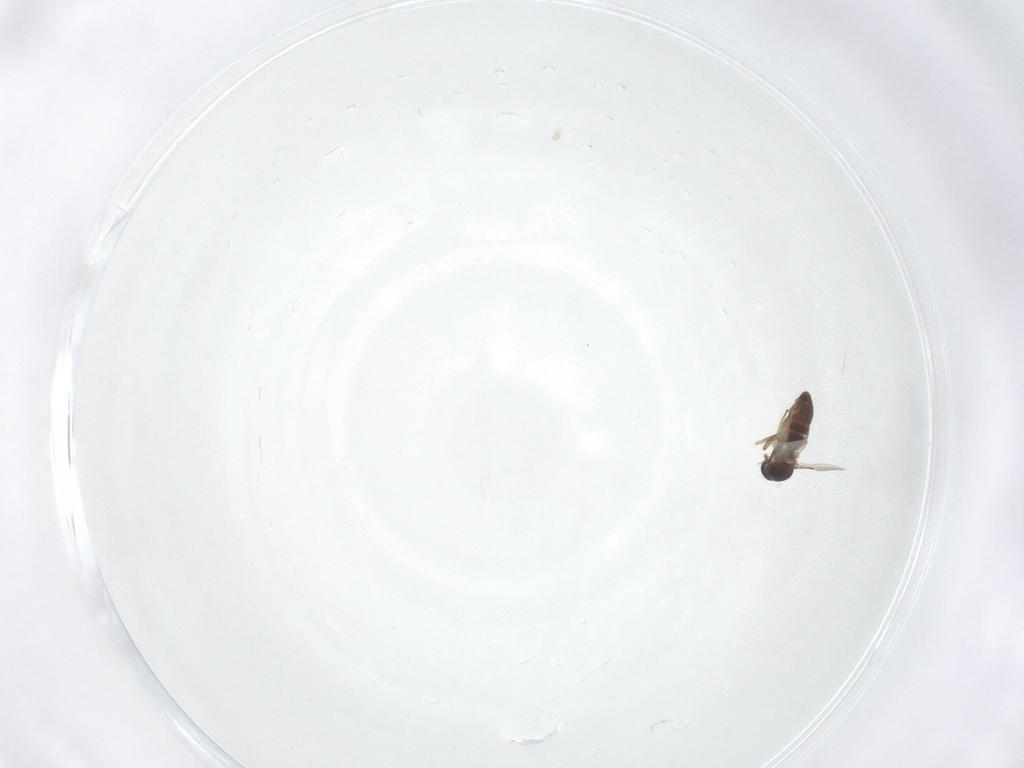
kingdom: Animalia
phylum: Arthropoda
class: Insecta
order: Diptera
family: Ceratopogonidae
